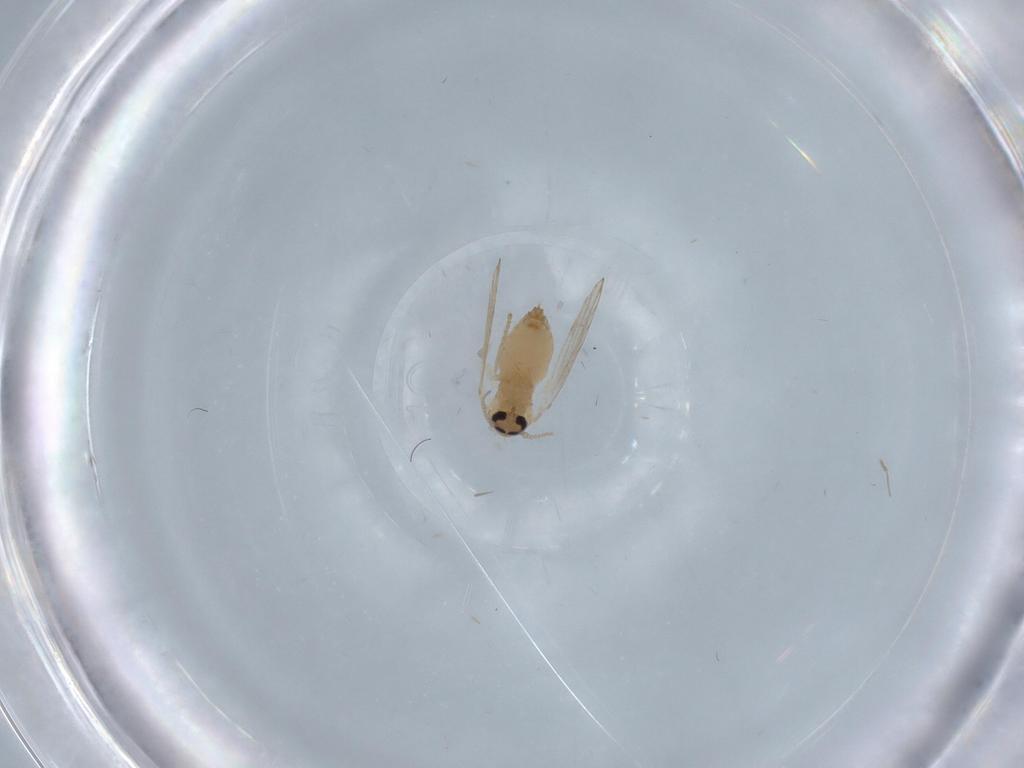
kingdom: Animalia
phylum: Arthropoda
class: Insecta
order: Diptera
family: Psychodidae
